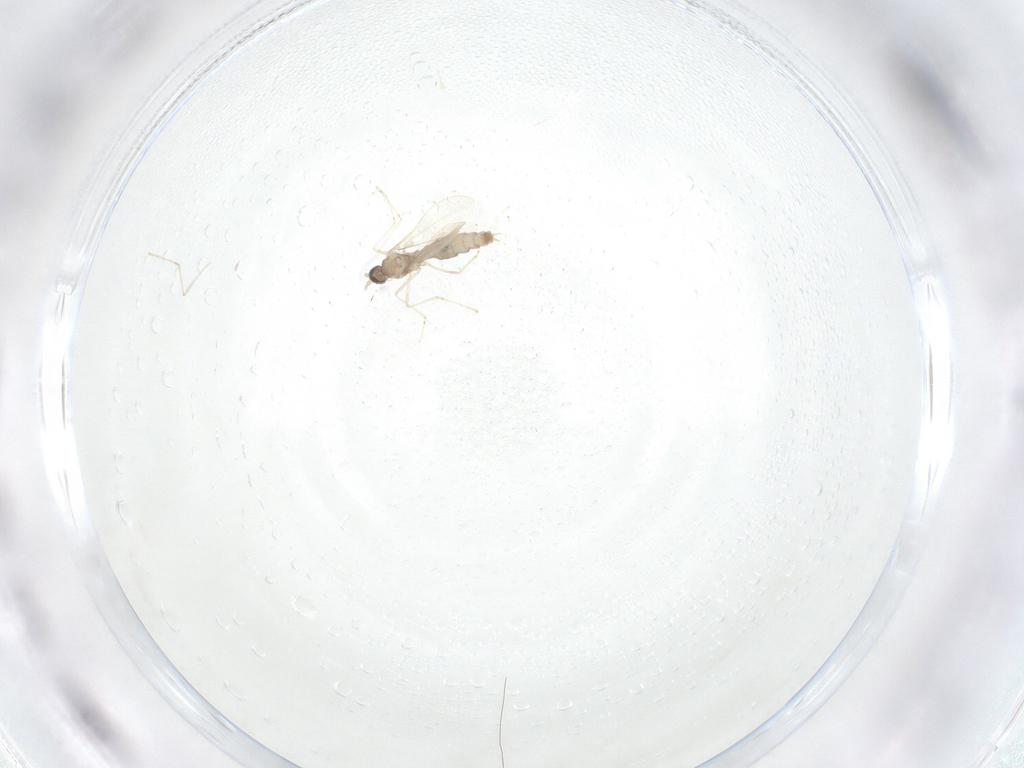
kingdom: Animalia
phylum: Arthropoda
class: Insecta
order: Diptera
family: Cecidomyiidae
